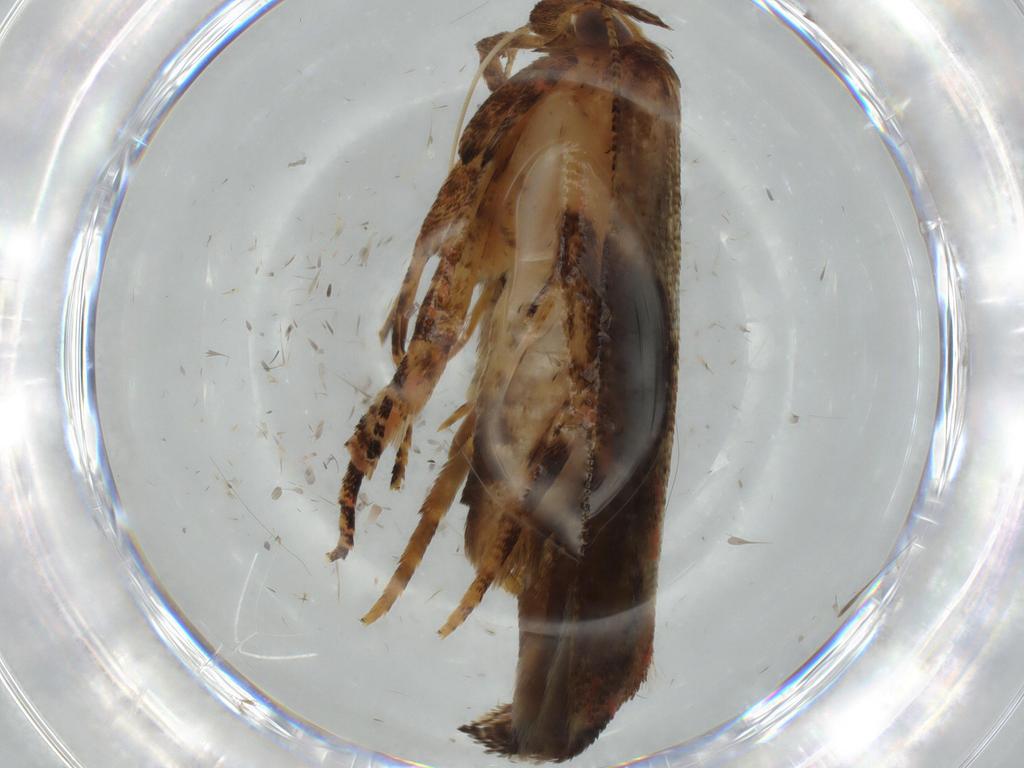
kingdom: Animalia
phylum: Arthropoda
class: Insecta
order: Lepidoptera
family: Gracillariidae
